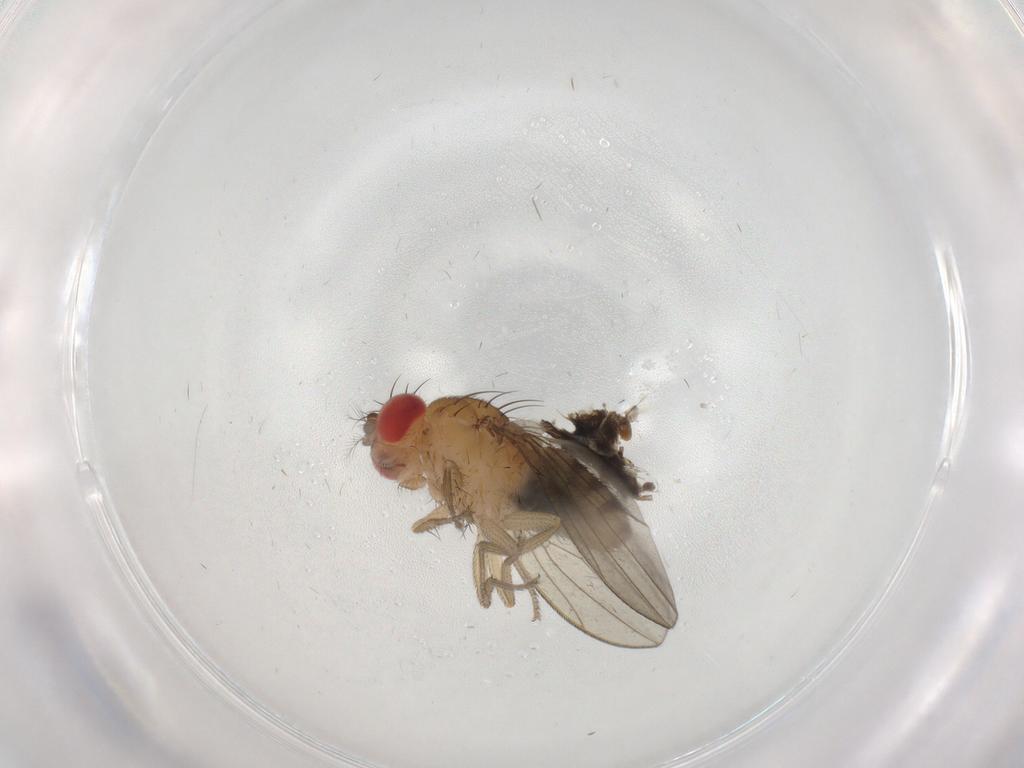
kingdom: Animalia
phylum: Arthropoda
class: Insecta
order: Diptera
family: Drosophilidae
